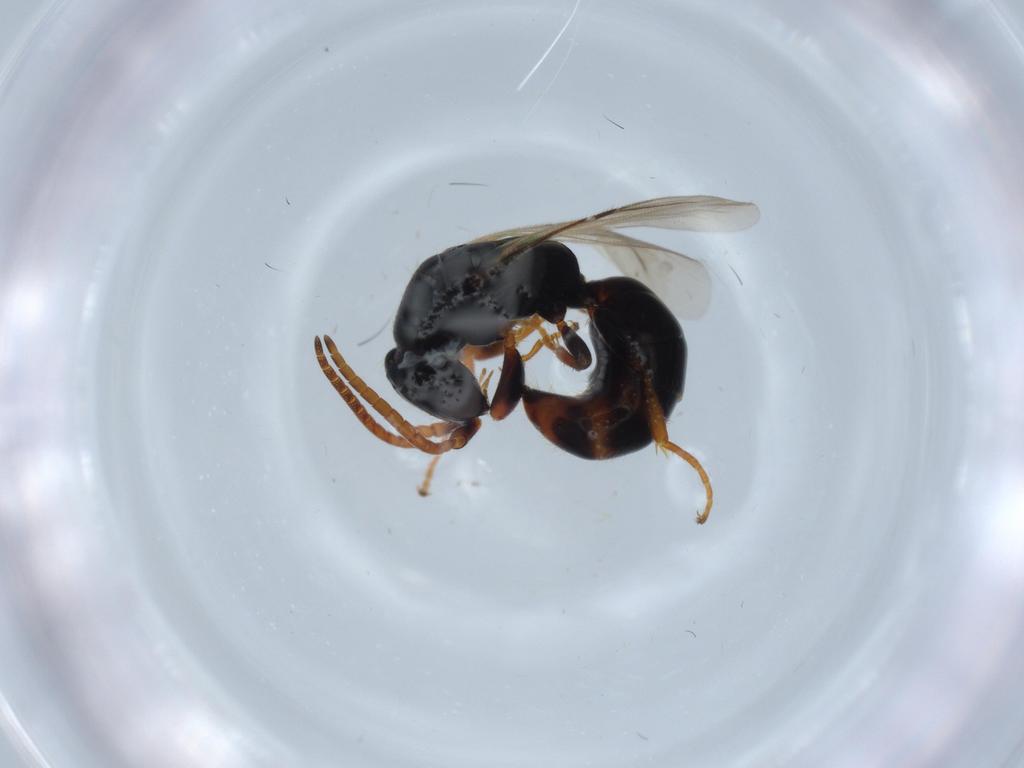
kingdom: Animalia
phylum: Arthropoda
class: Insecta
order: Hymenoptera
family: Bethylidae
